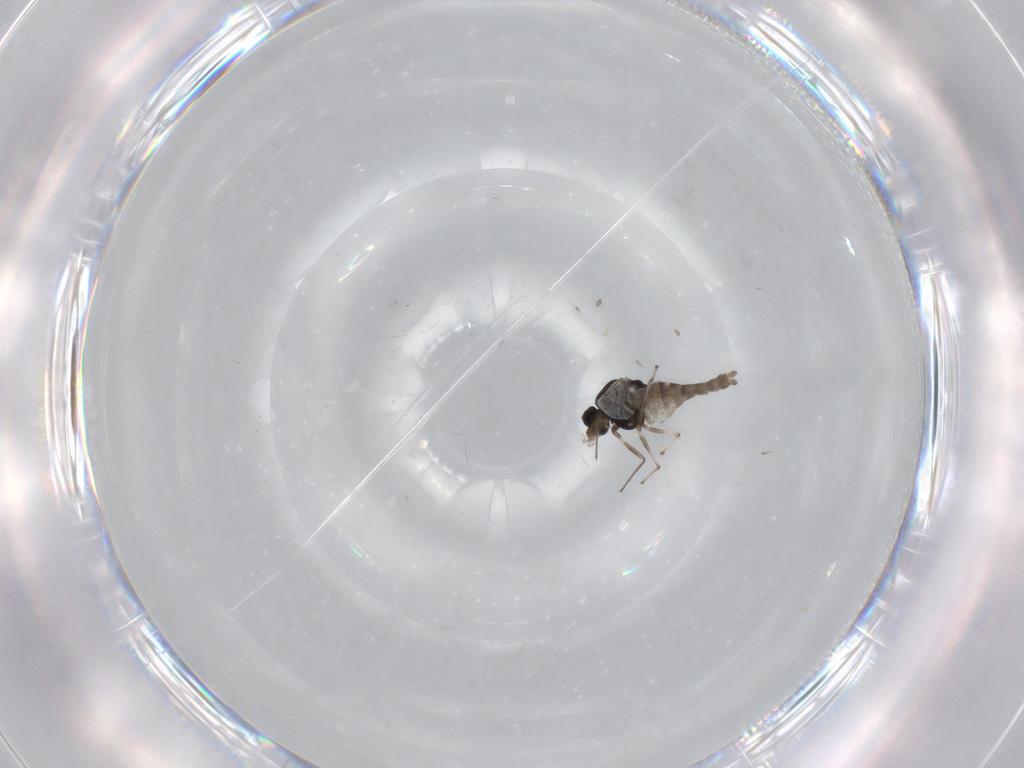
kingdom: Animalia
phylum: Arthropoda
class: Insecta
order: Diptera
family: Chironomidae
